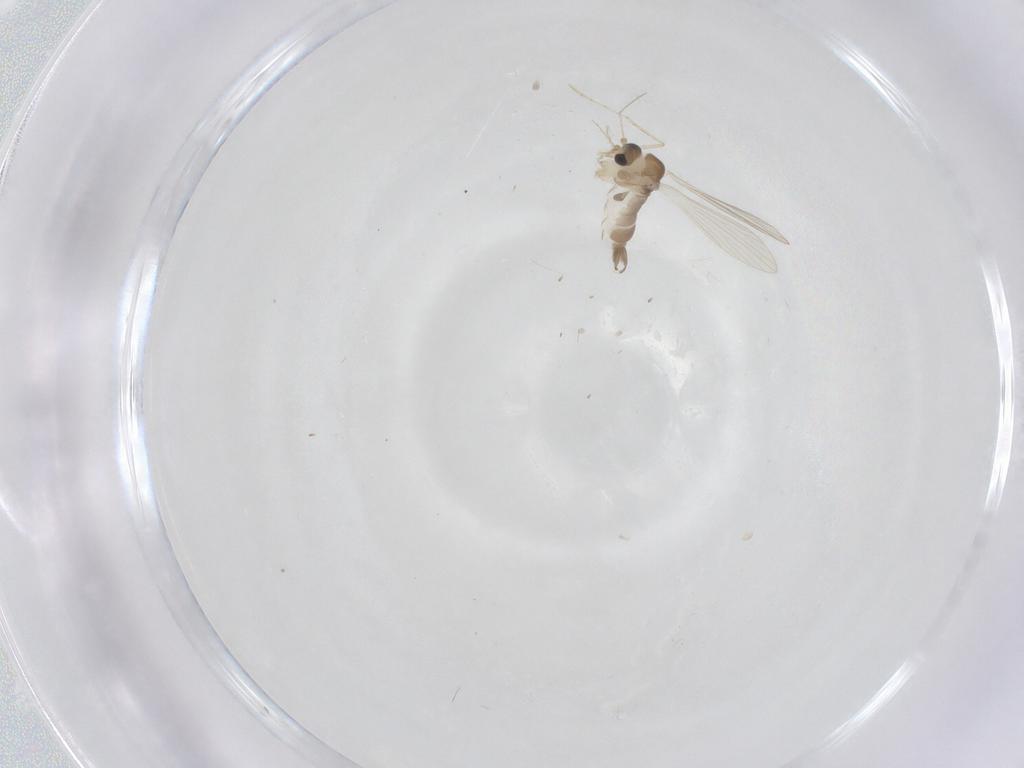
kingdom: Animalia
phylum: Arthropoda
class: Insecta
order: Diptera
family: Psychodidae
